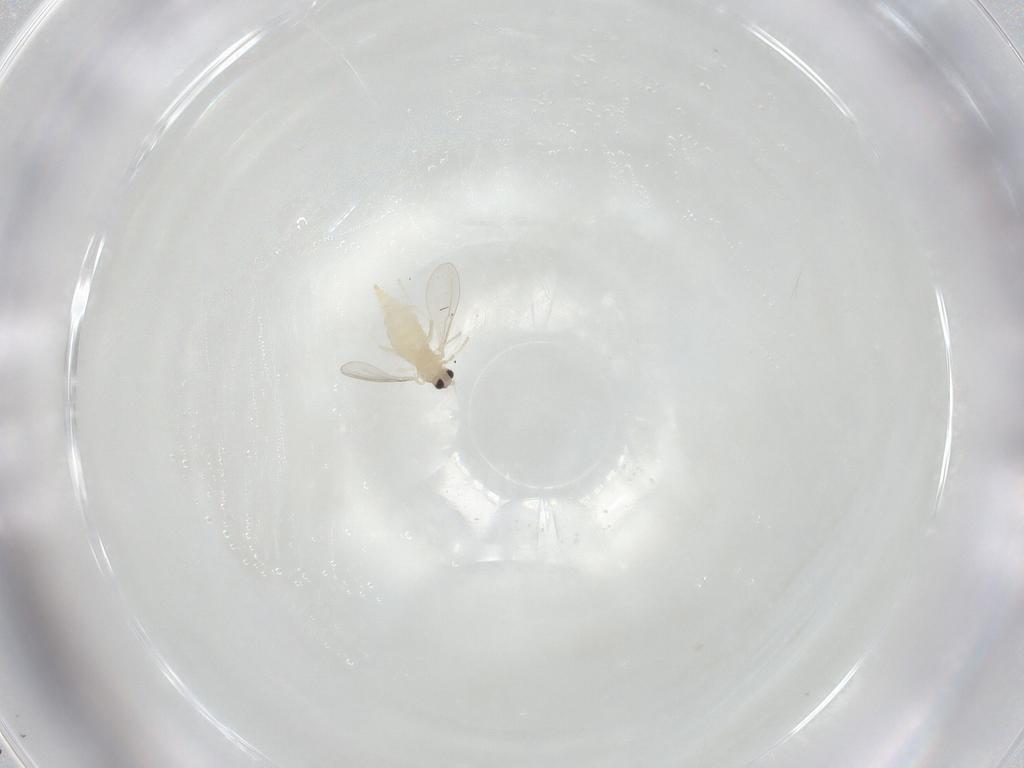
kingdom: Animalia
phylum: Arthropoda
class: Insecta
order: Diptera
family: Cecidomyiidae
